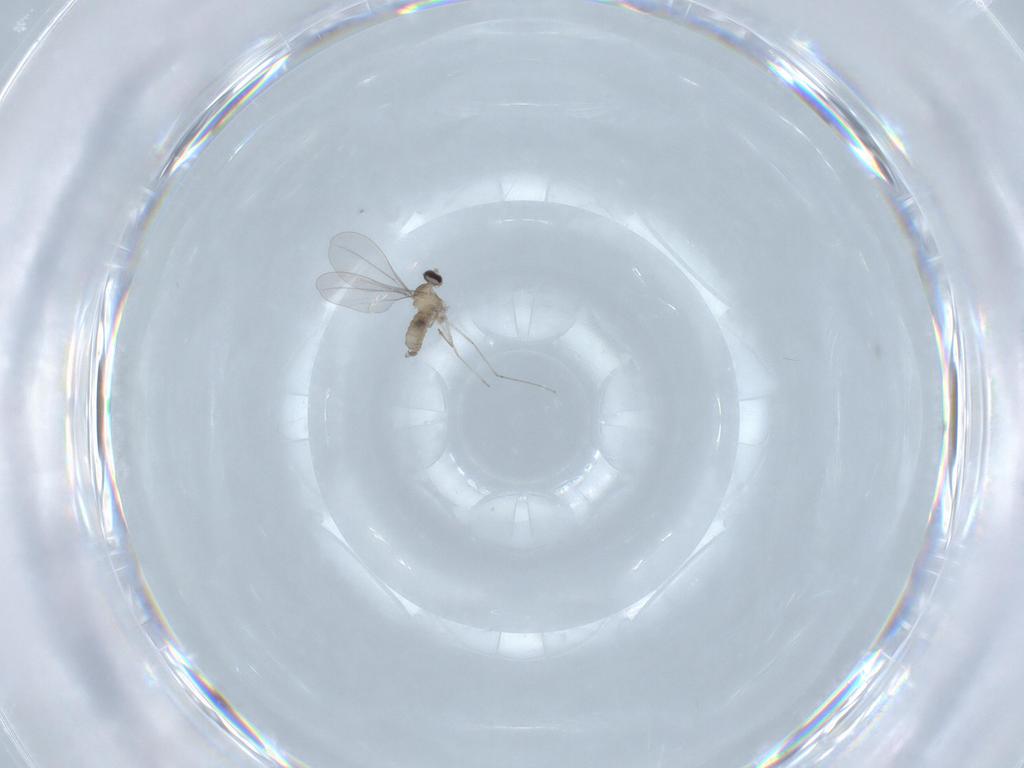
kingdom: Animalia
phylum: Arthropoda
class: Insecta
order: Diptera
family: Cecidomyiidae
